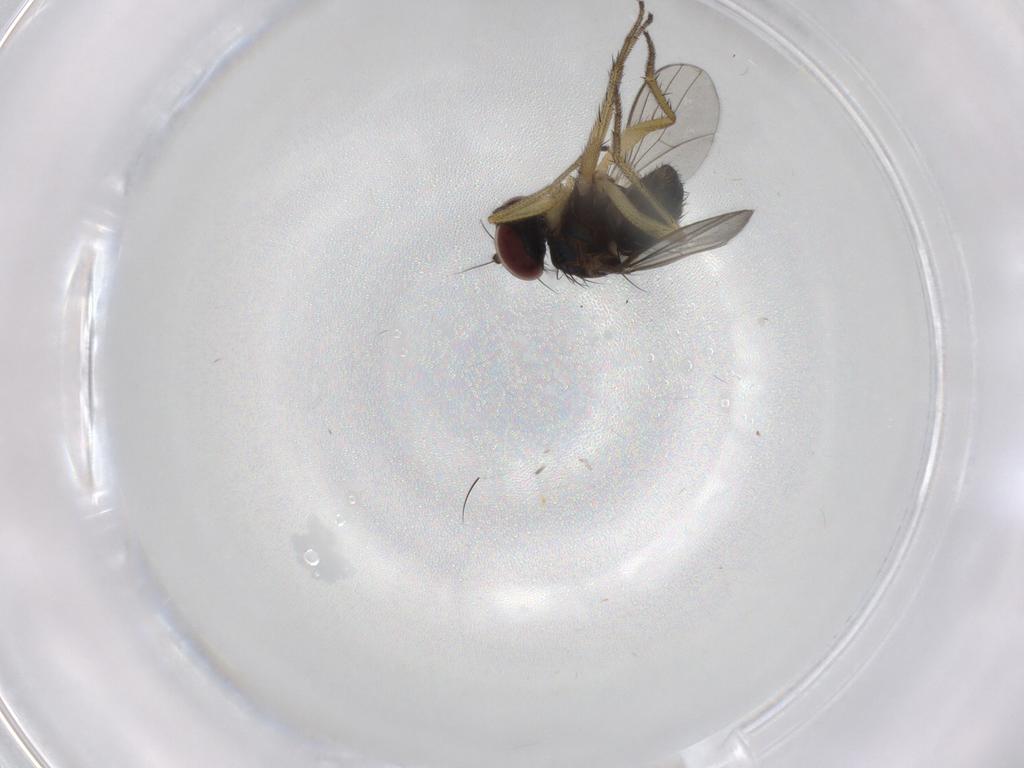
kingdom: Animalia
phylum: Arthropoda
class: Insecta
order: Diptera
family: Dolichopodidae
